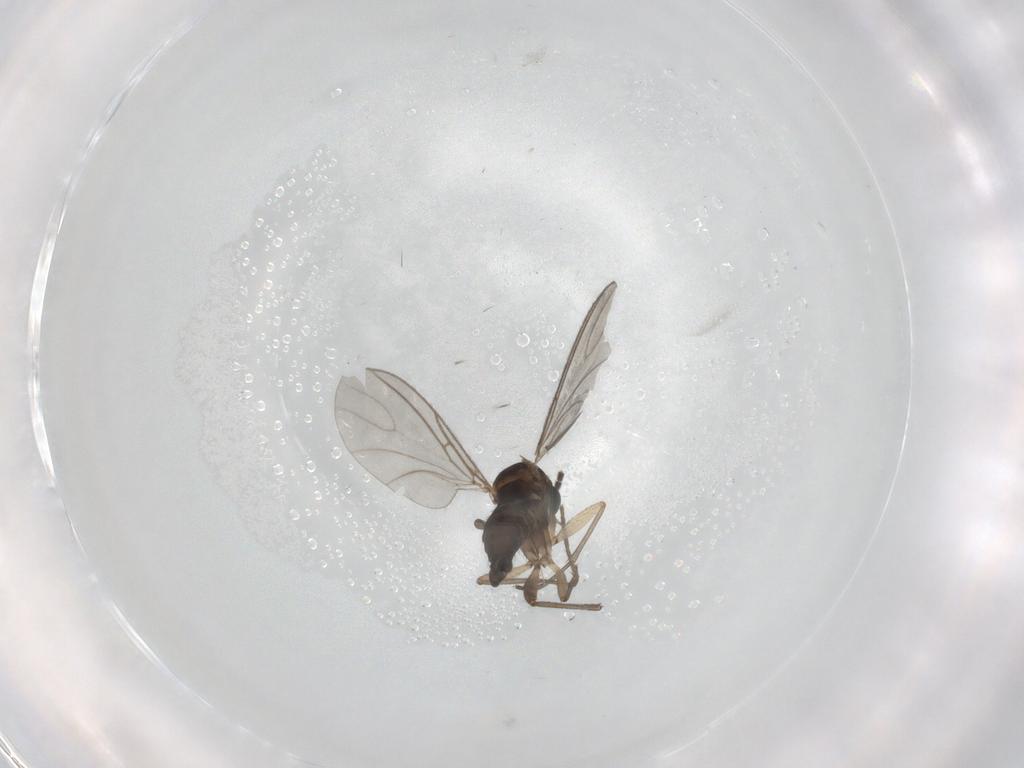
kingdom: Animalia
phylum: Arthropoda
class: Insecta
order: Diptera
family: Sciaridae
